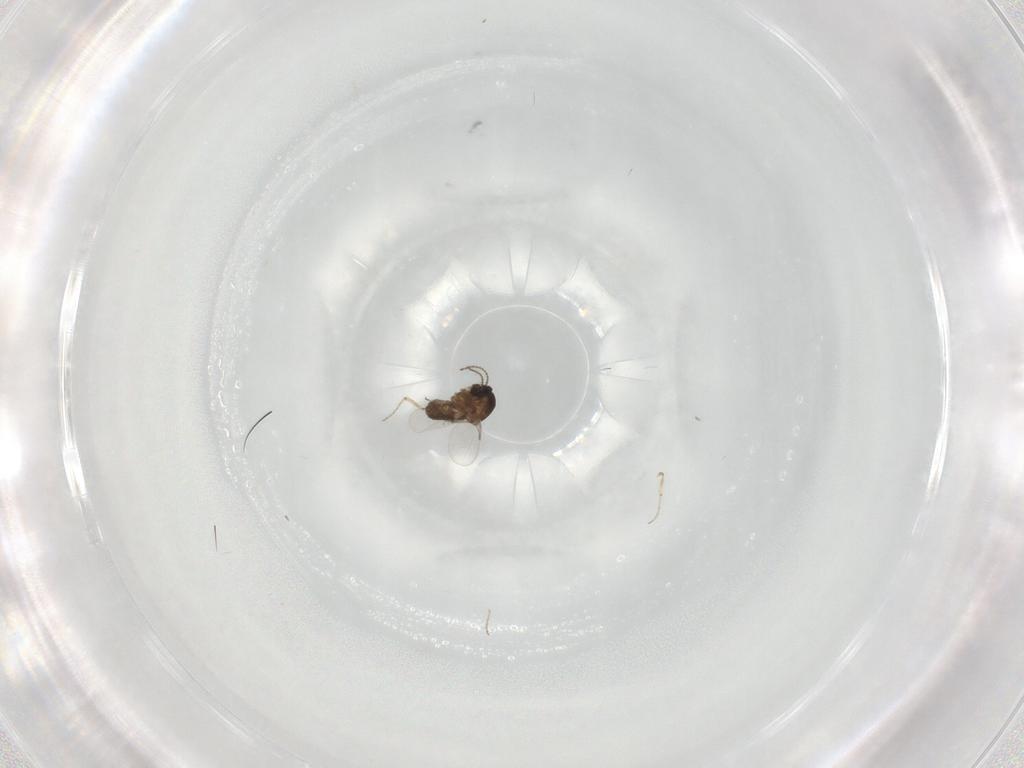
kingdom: Animalia
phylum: Arthropoda
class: Insecta
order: Diptera
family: Ceratopogonidae
